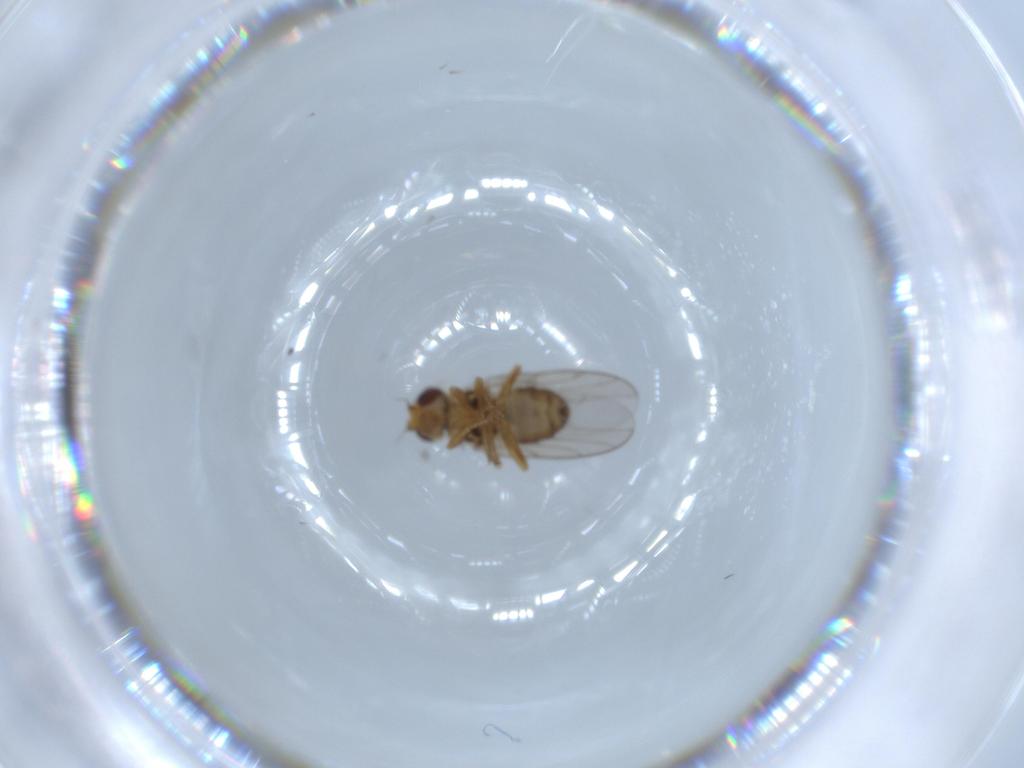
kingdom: Animalia
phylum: Arthropoda
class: Insecta
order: Diptera
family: Chloropidae
